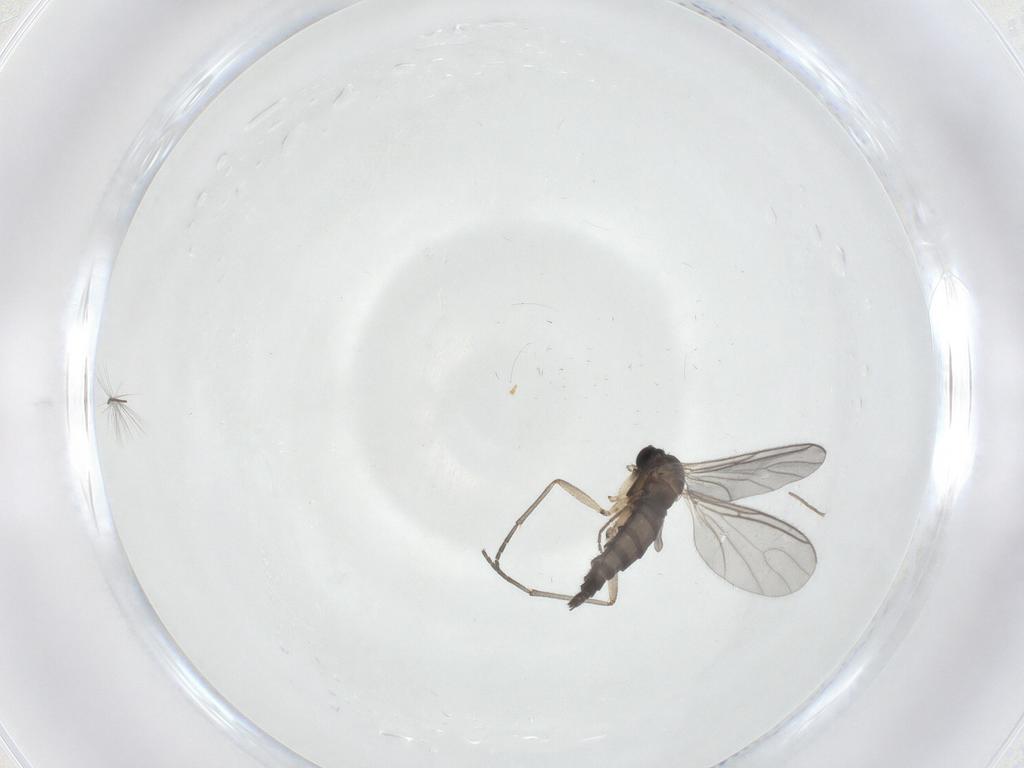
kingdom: Animalia
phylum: Arthropoda
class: Insecta
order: Diptera
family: Sciaridae
